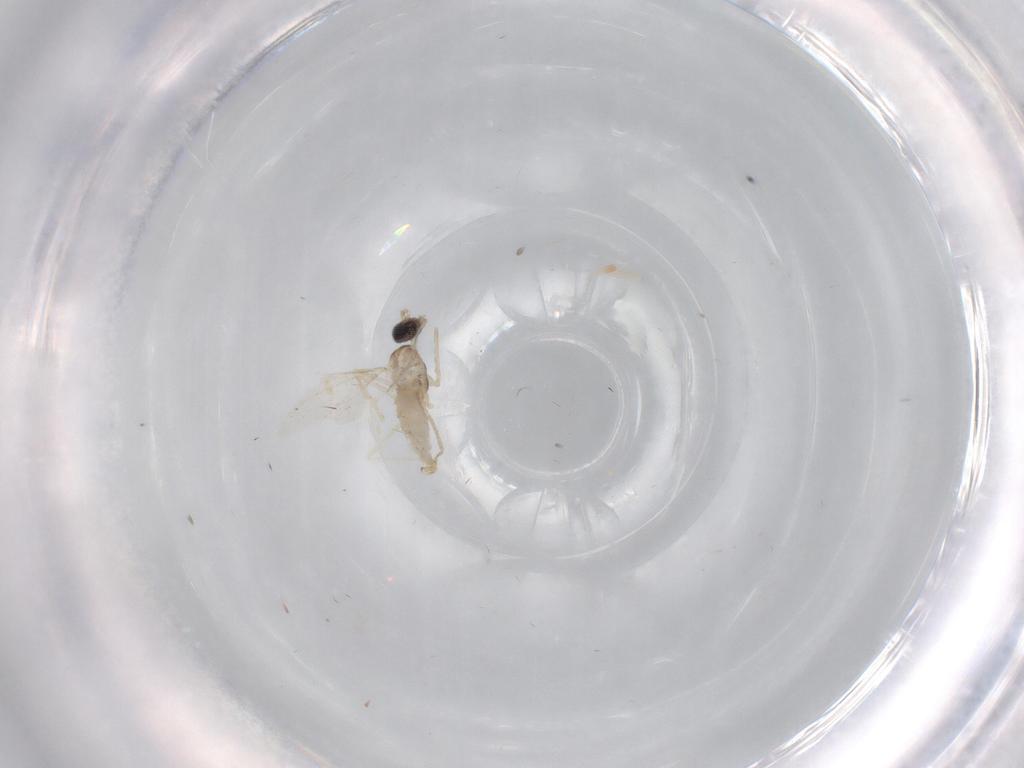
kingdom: Animalia
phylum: Arthropoda
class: Insecta
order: Diptera
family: Cecidomyiidae
